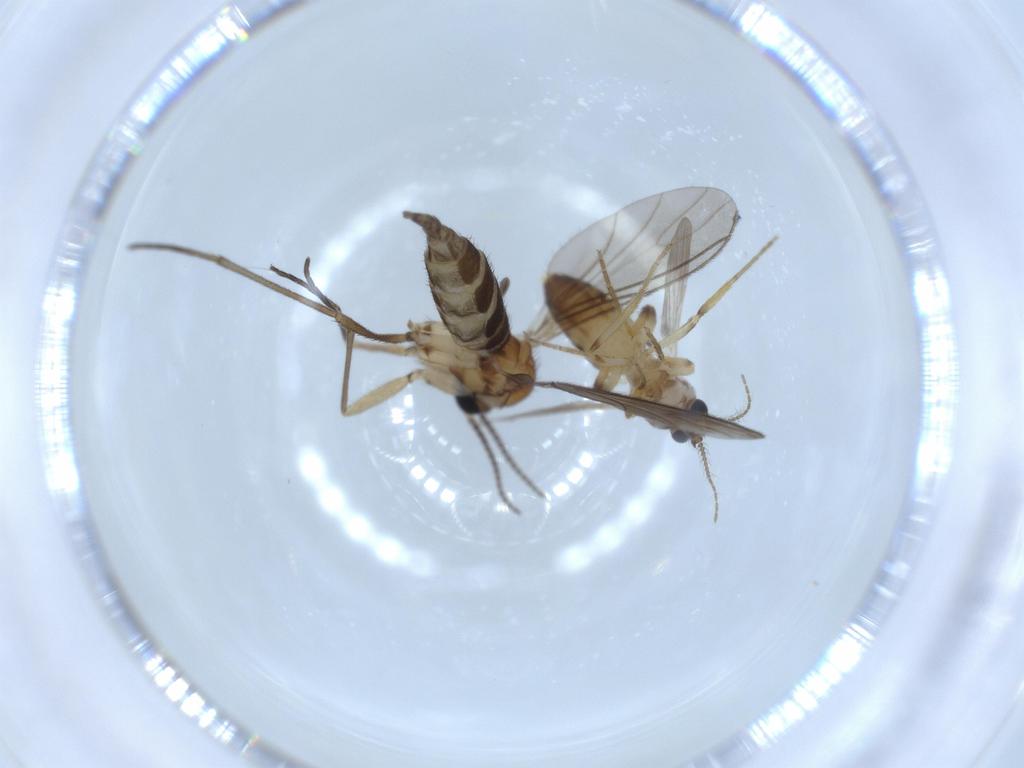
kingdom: Animalia
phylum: Arthropoda
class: Insecta
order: Diptera
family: Ceratopogonidae
